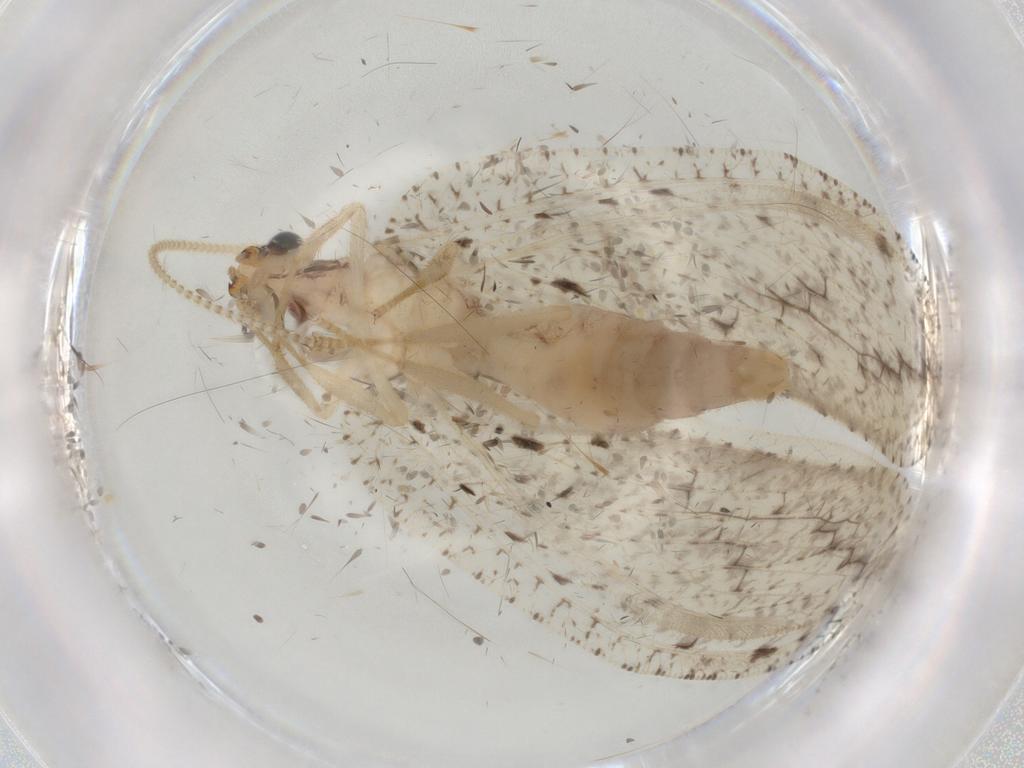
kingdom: Animalia
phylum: Arthropoda
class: Insecta
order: Neuroptera
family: Hemerobiidae
